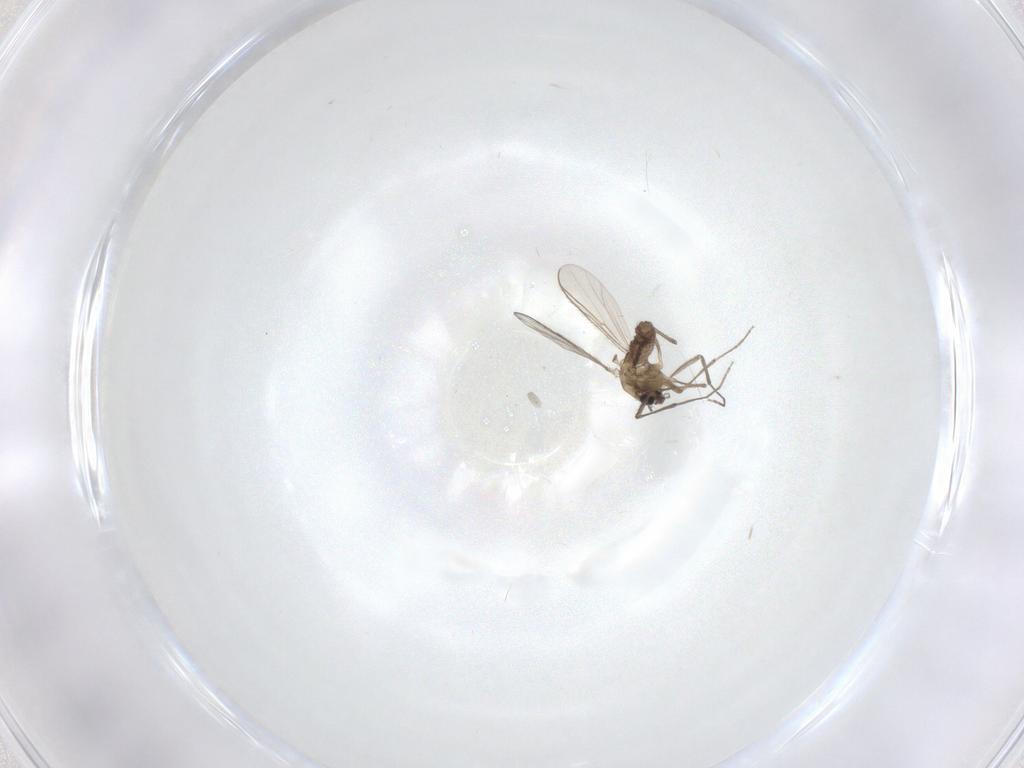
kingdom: Animalia
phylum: Arthropoda
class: Insecta
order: Diptera
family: Chironomidae
